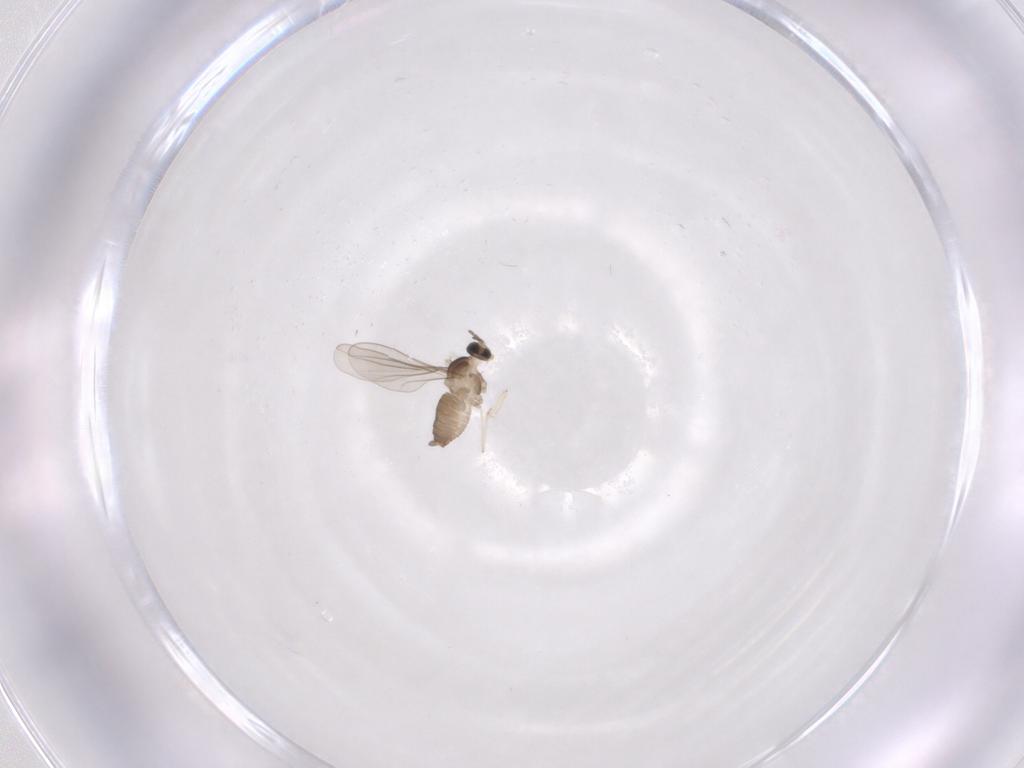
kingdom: Animalia
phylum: Arthropoda
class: Insecta
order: Diptera
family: Cecidomyiidae
